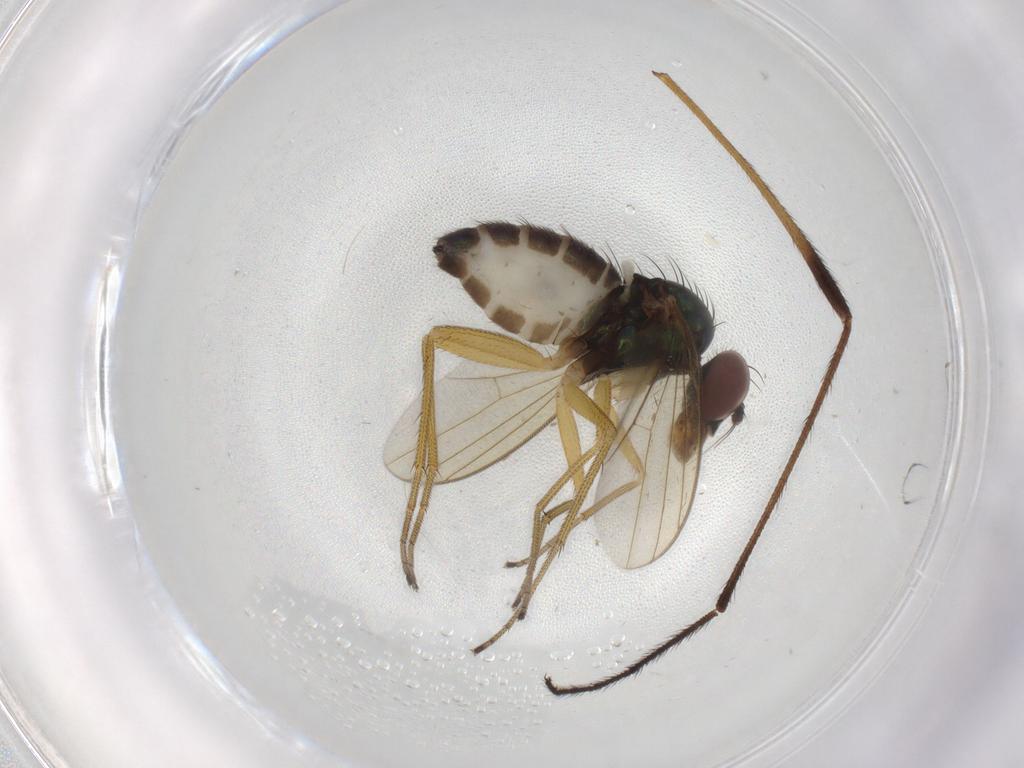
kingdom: Animalia
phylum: Arthropoda
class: Insecta
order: Diptera
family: Dolichopodidae
